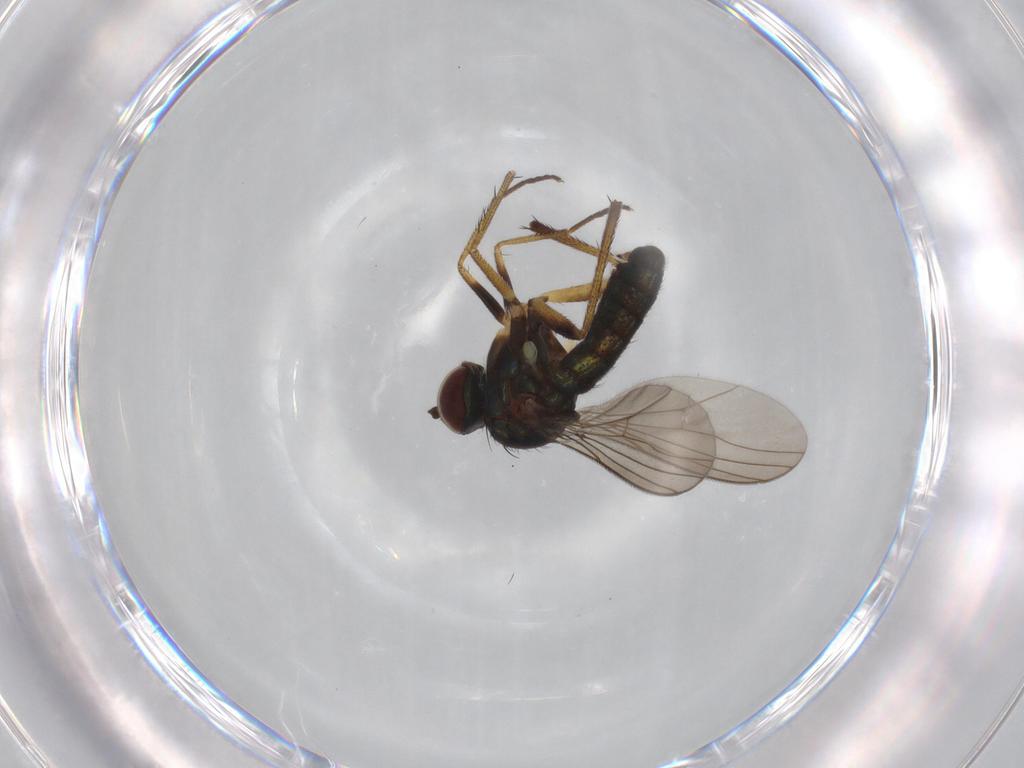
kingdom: Animalia
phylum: Arthropoda
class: Insecta
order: Diptera
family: Dolichopodidae
